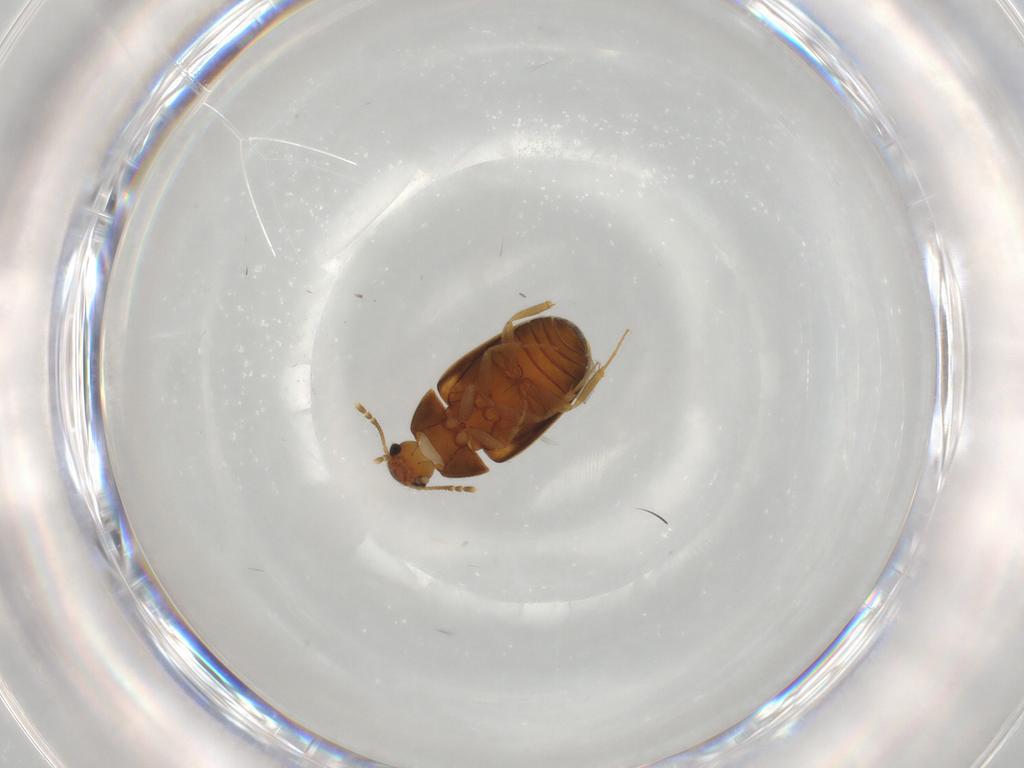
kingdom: Animalia
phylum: Arthropoda
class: Insecta
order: Coleoptera
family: Mycetophagidae
